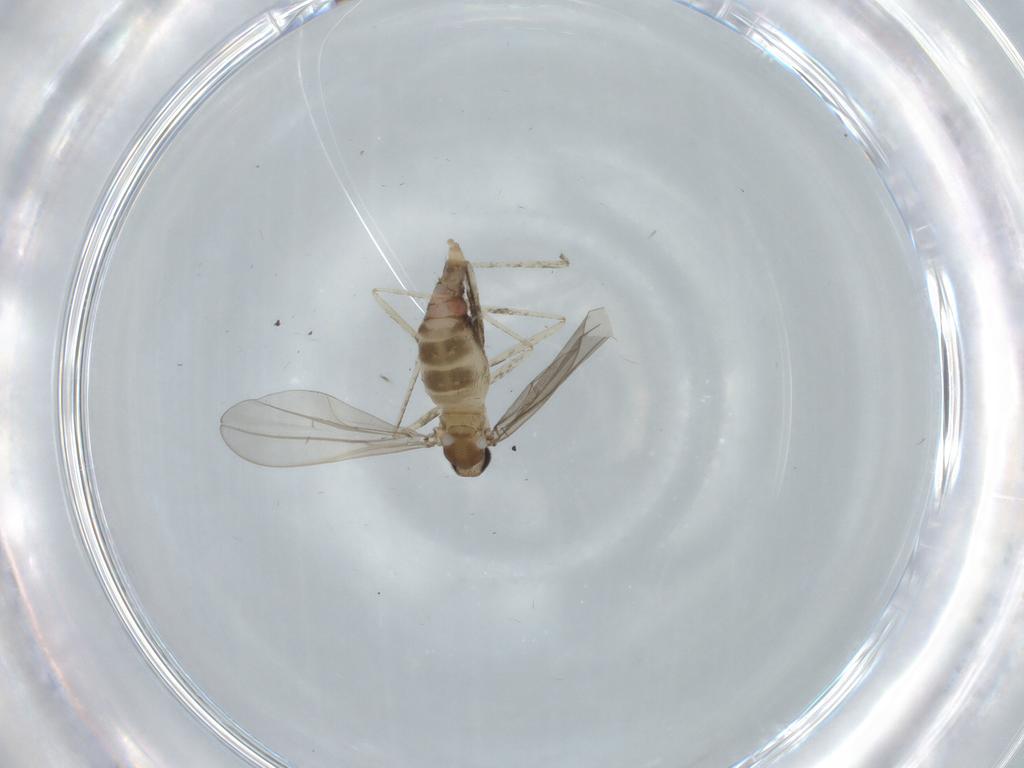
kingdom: Animalia
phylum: Arthropoda
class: Insecta
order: Diptera
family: Cecidomyiidae
